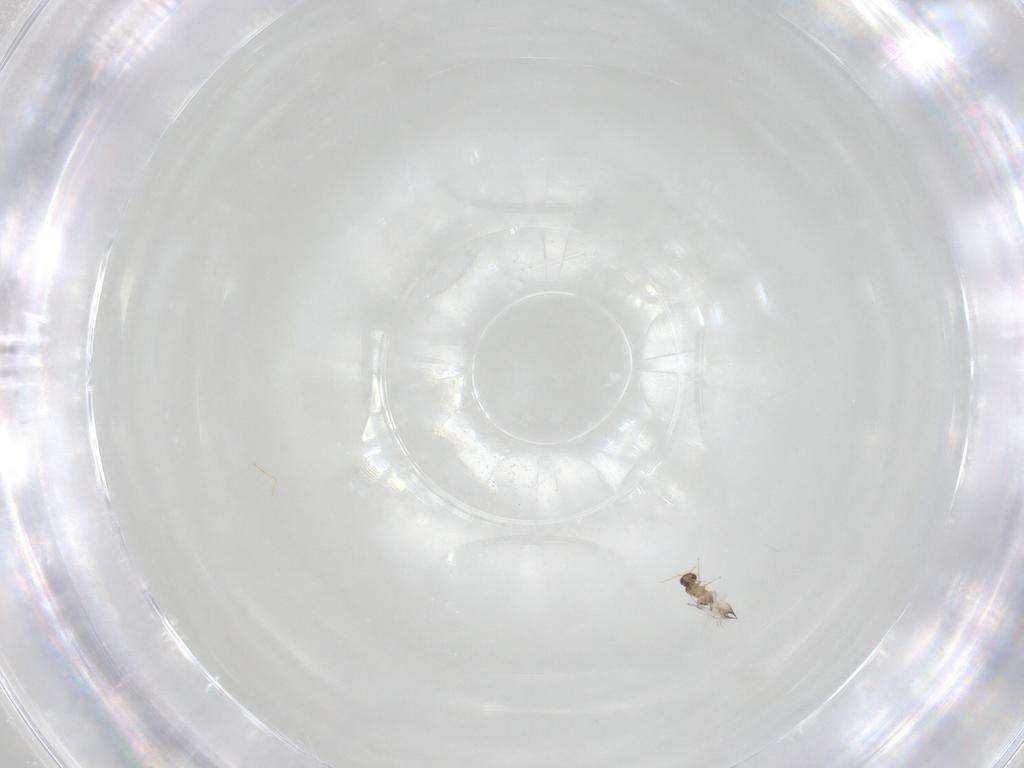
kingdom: Animalia
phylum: Arthropoda
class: Insecta
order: Hymenoptera
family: Mymaridae
